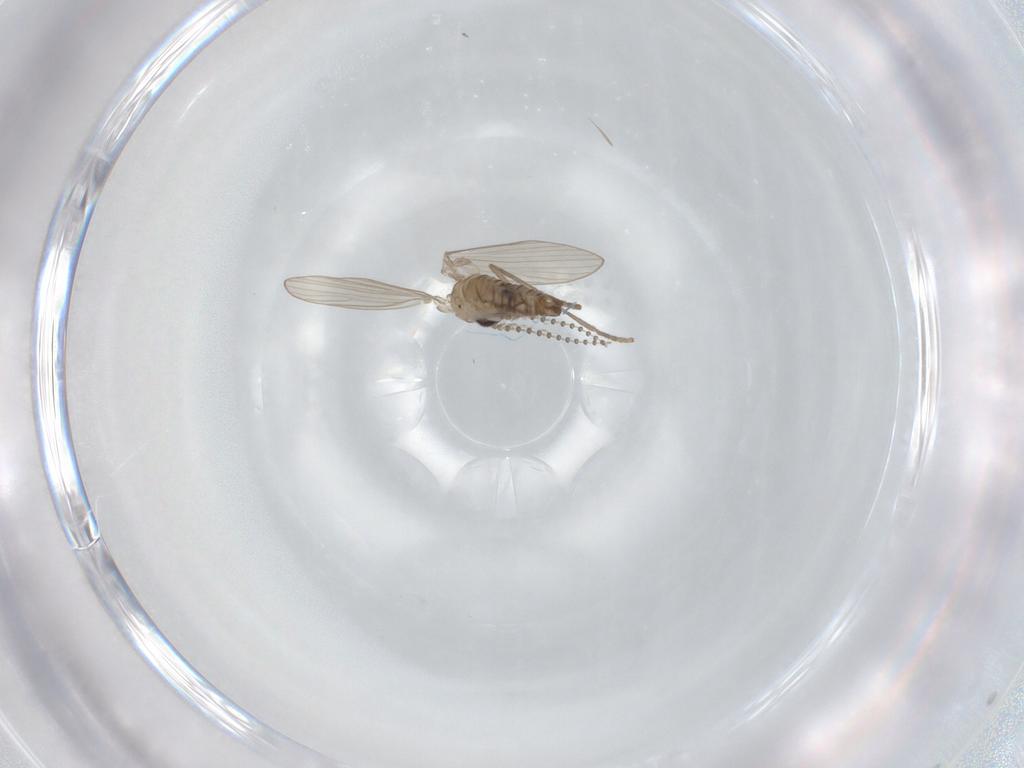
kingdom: Animalia
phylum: Arthropoda
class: Insecta
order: Diptera
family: Psychodidae
